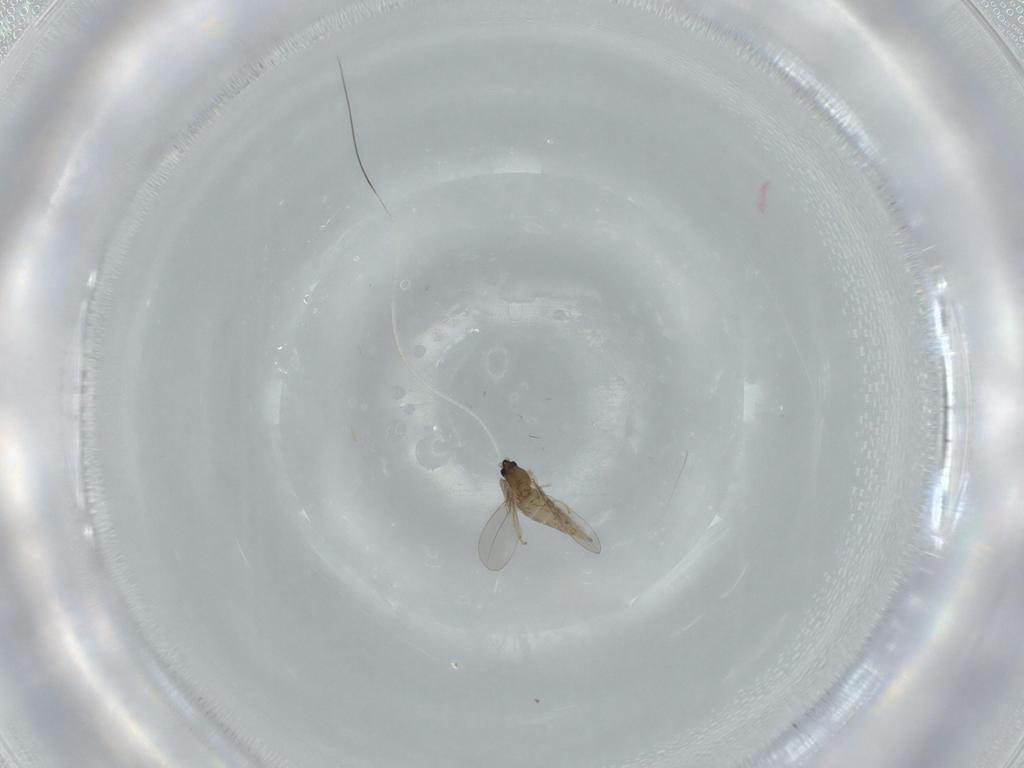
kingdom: Animalia
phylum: Arthropoda
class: Insecta
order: Diptera
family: Cecidomyiidae
